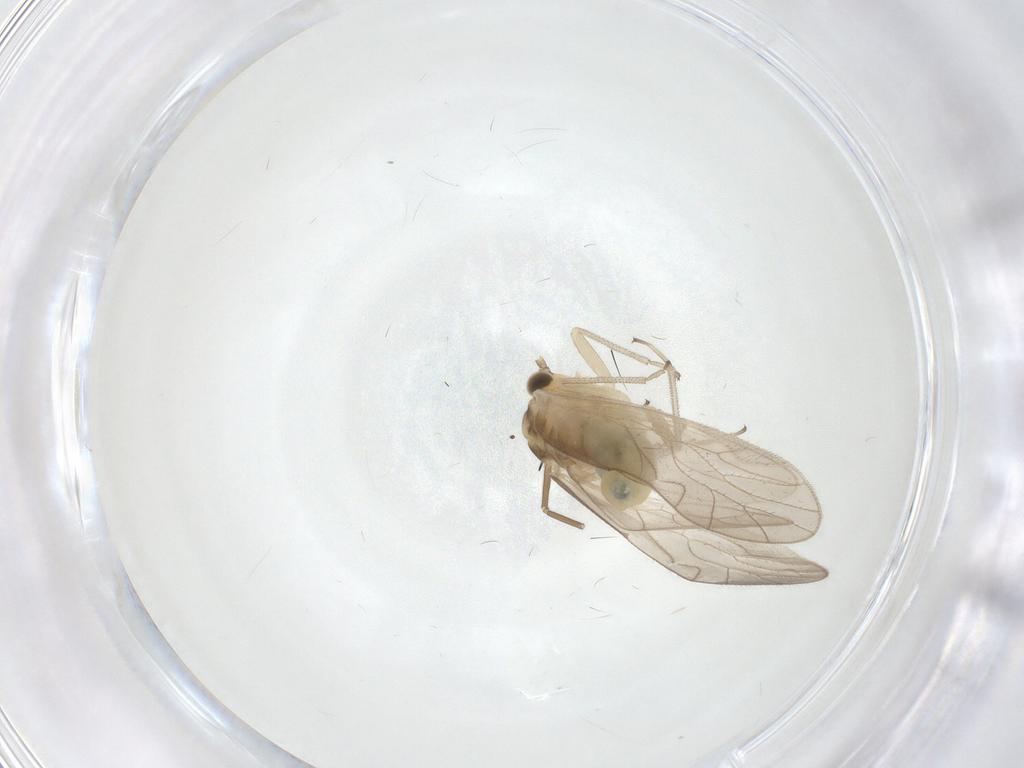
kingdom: Animalia
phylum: Arthropoda
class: Insecta
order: Psocodea
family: Caeciliusidae
